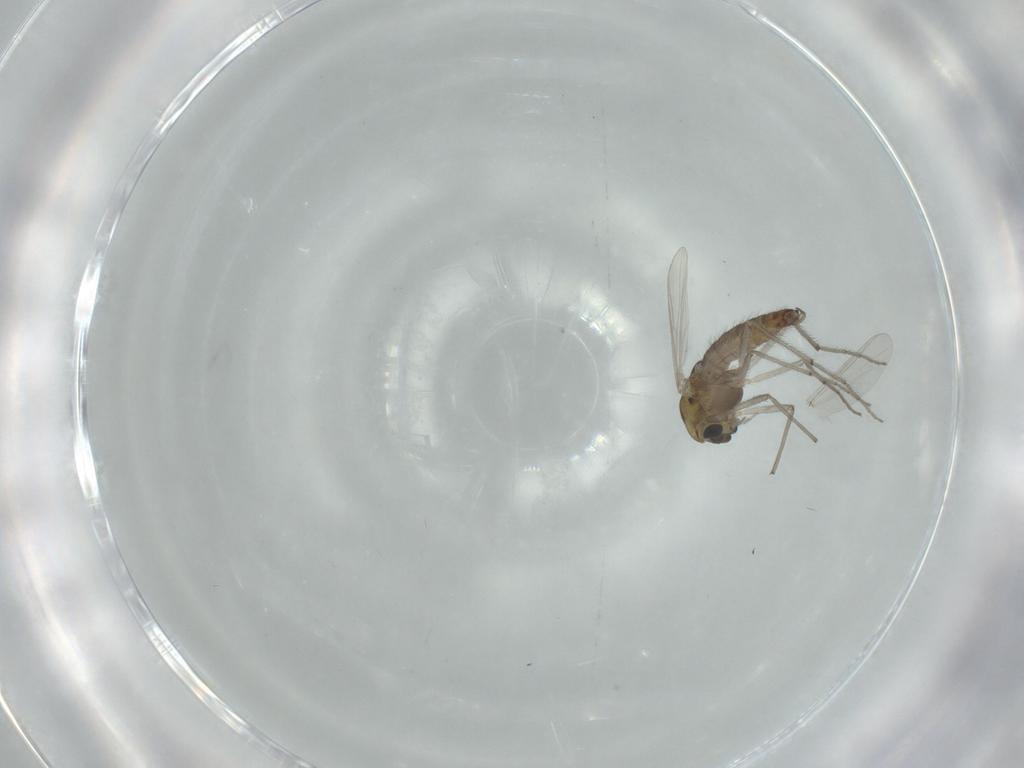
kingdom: Animalia
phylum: Arthropoda
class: Insecta
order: Diptera
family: Chironomidae
